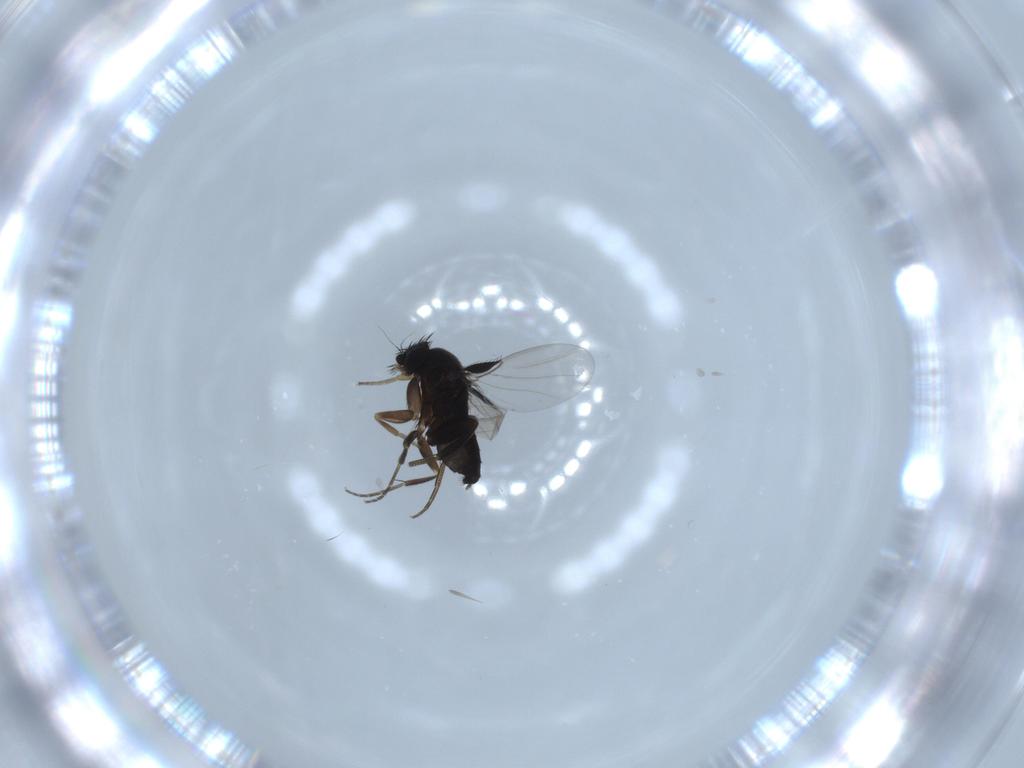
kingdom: Animalia
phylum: Arthropoda
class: Insecta
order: Diptera
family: Phoridae
